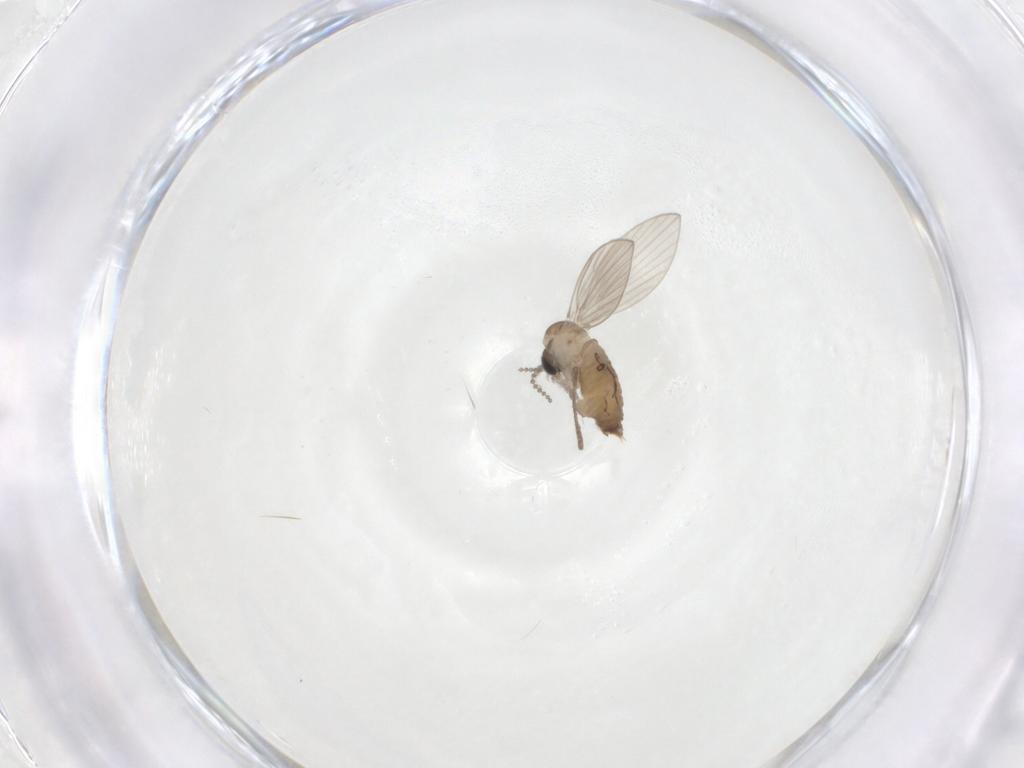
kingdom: Animalia
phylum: Arthropoda
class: Insecta
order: Diptera
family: Psychodidae
